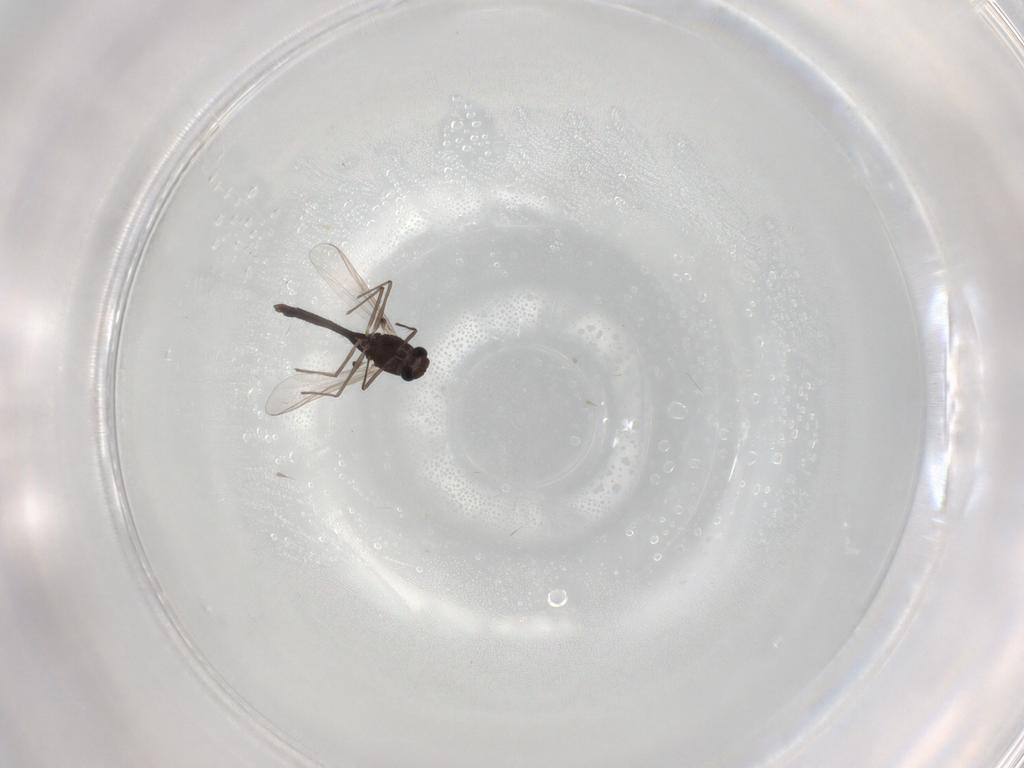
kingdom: Animalia
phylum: Arthropoda
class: Insecta
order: Diptera
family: Chironomidae
